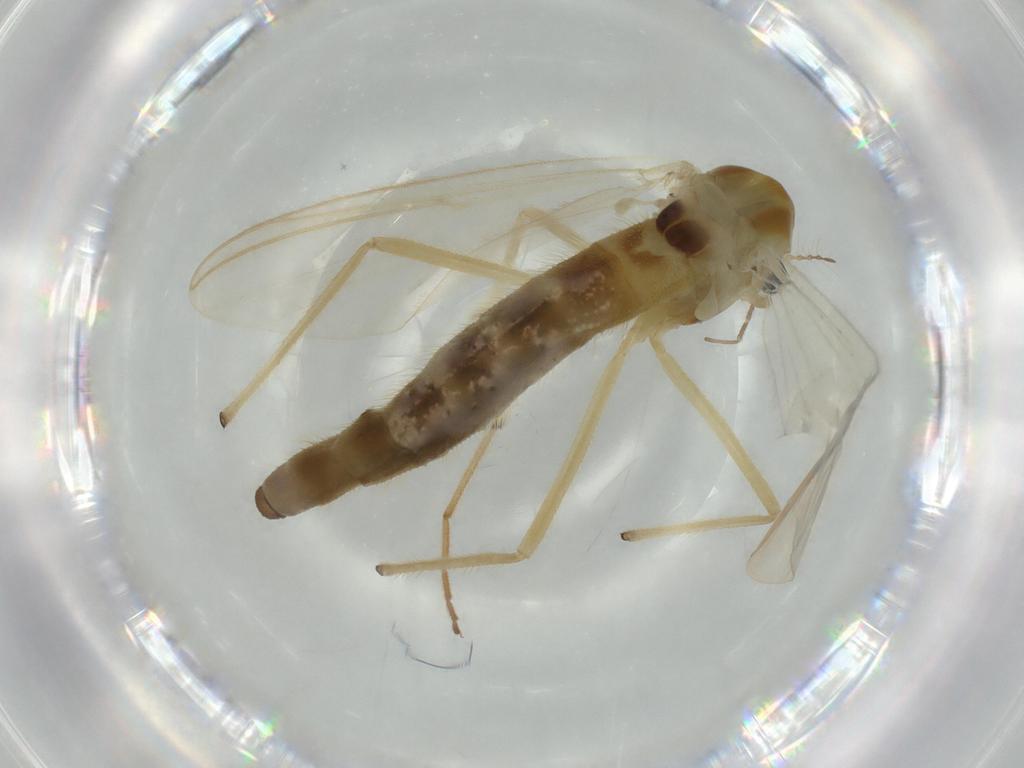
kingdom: Animalia
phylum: Arthropoda
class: Insecta
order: Diptera
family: Chironomidae
